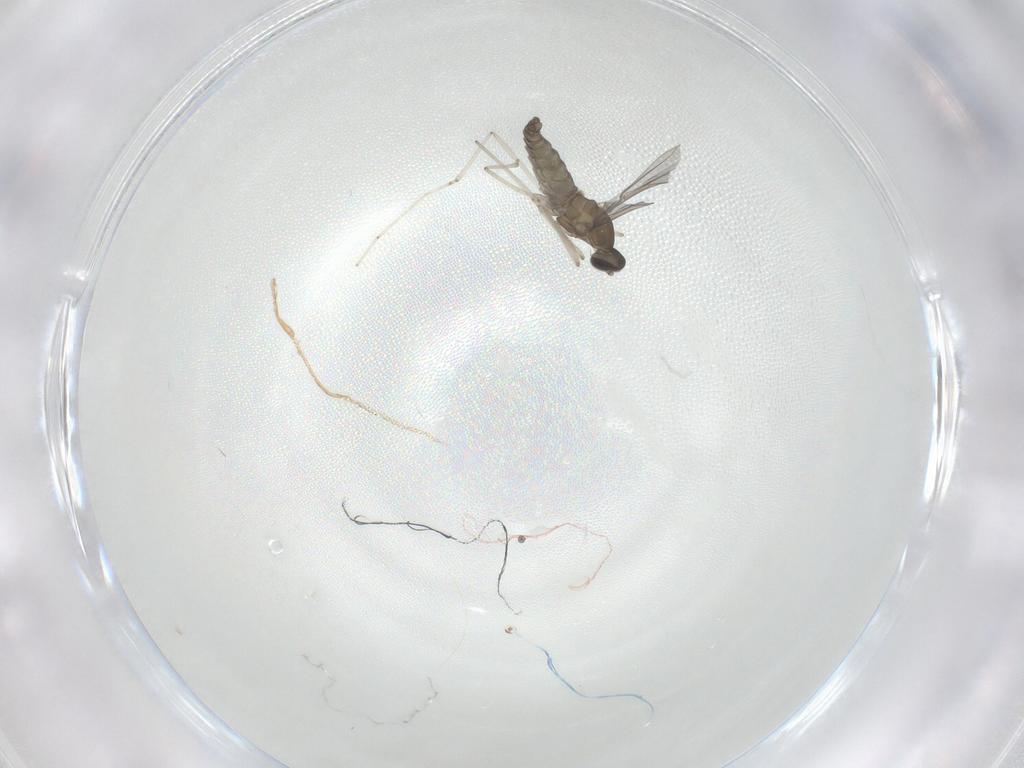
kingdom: Animalia
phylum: Arthropoda
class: Insecta
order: Diptera
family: Cecidomyiidae
